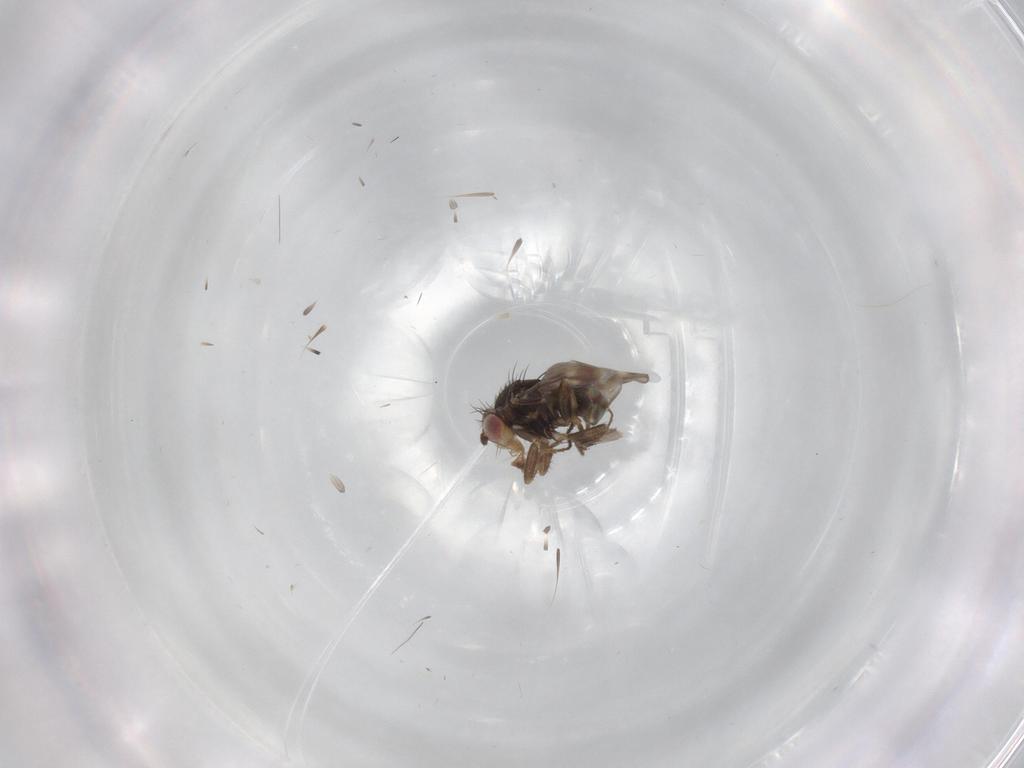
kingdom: Animalia
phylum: Arthropoda
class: Insecta
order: Diptera
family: Sphaeroceridae
